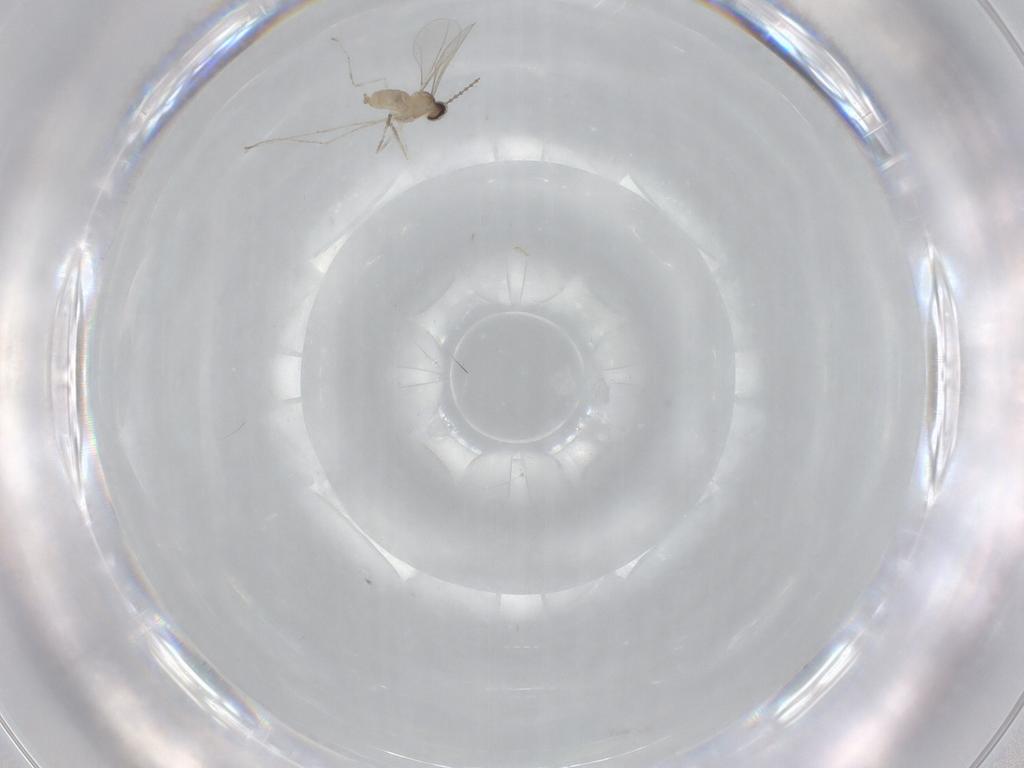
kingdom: Animalia
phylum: Arthropoda
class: Insecta
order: Diptera
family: Cecidomyiidae
